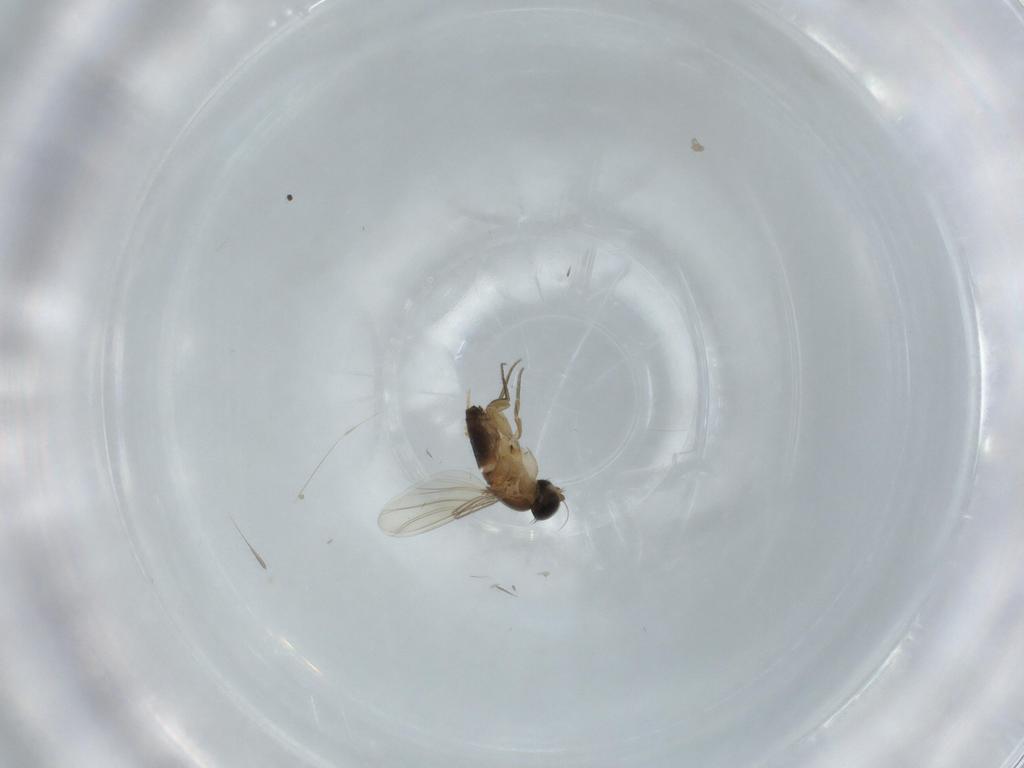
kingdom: Animalia
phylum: Arthropoda
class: Insecta
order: Diptera
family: Phoridae
